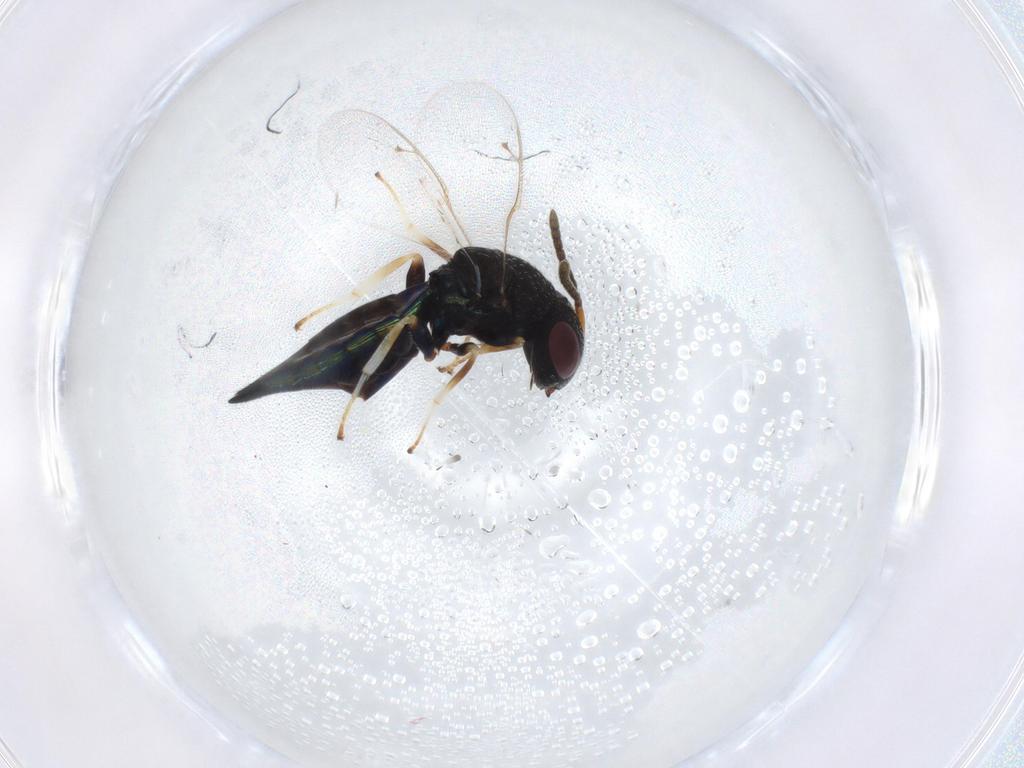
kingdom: Animalia
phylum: Arthropoda
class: Insecta
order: Hymenoptera
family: Pteromalidae
